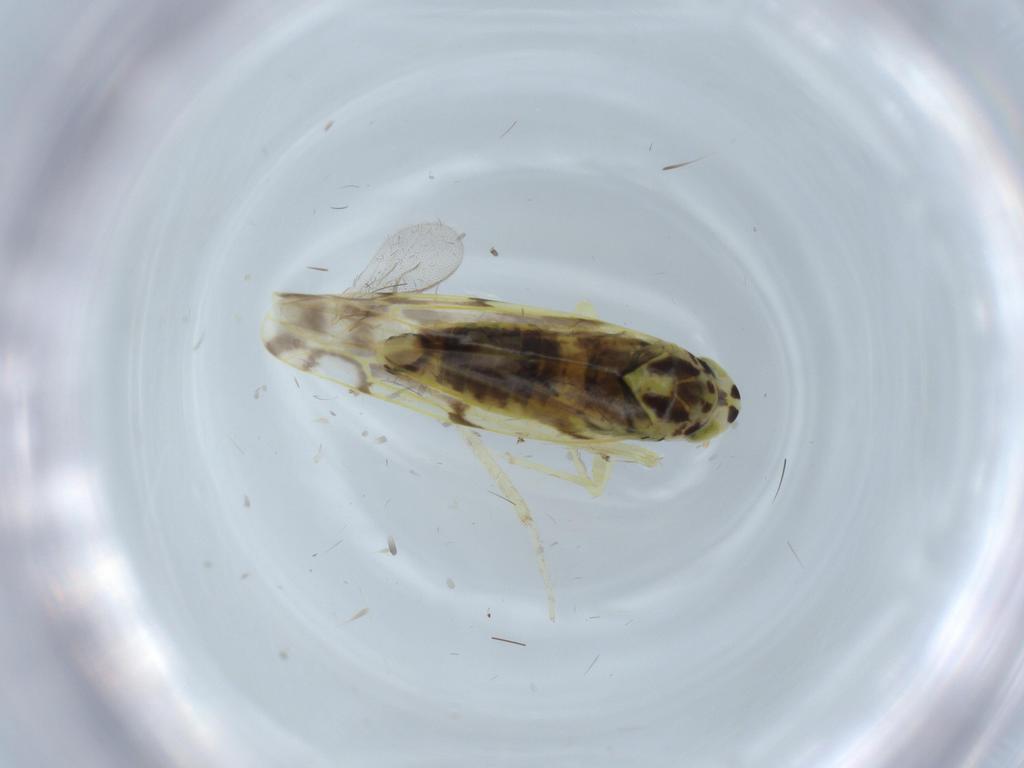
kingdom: Animalia
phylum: Arthropoda
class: Insecta
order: Hemiptera
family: Cicadellidae
